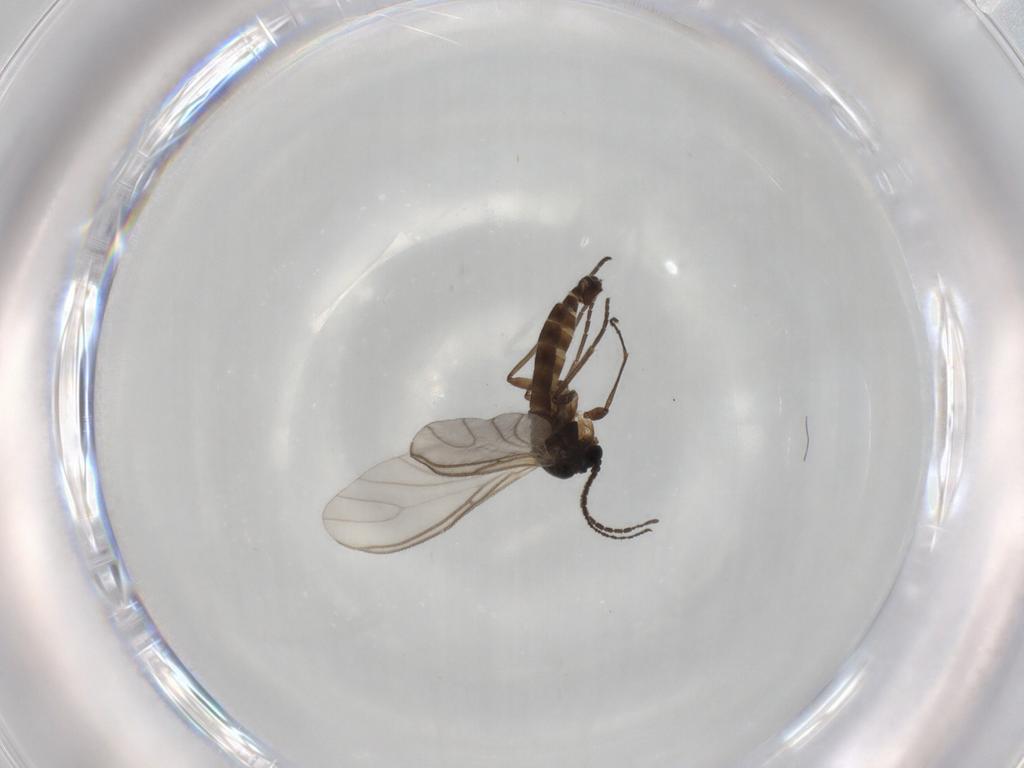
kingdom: Animalia
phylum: Arthropoda
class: Insecta
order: Diptera
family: Sciaridae
